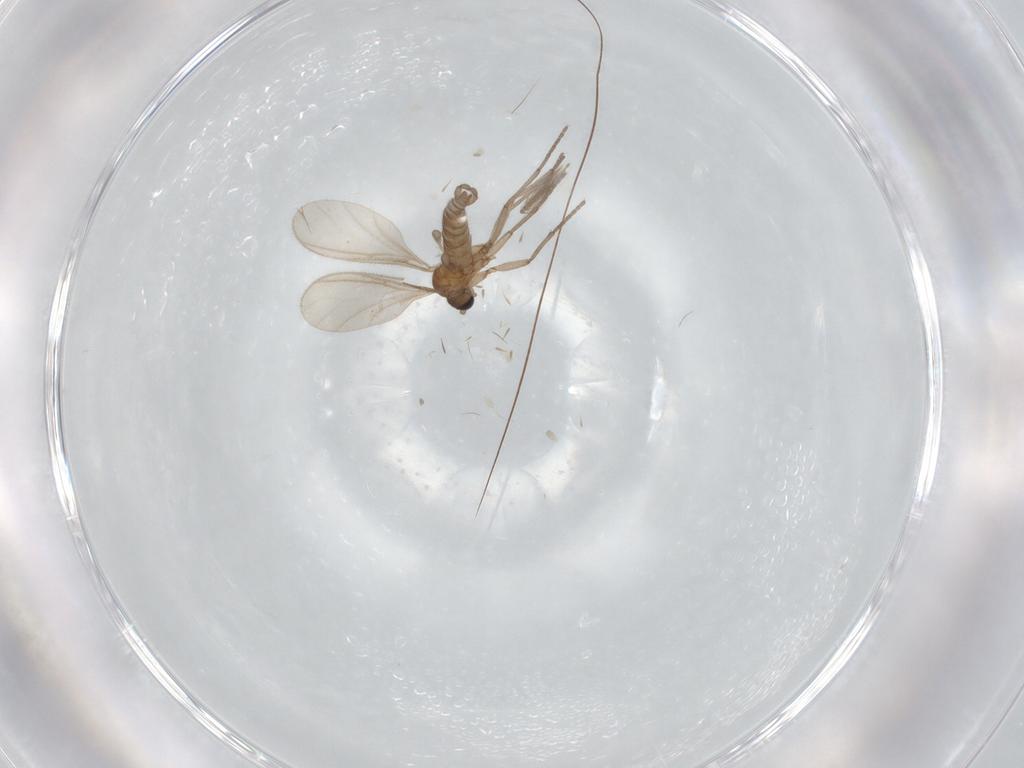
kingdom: Animalia
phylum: Arthropoda
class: Insecta
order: Diptera
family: Sciaridae
